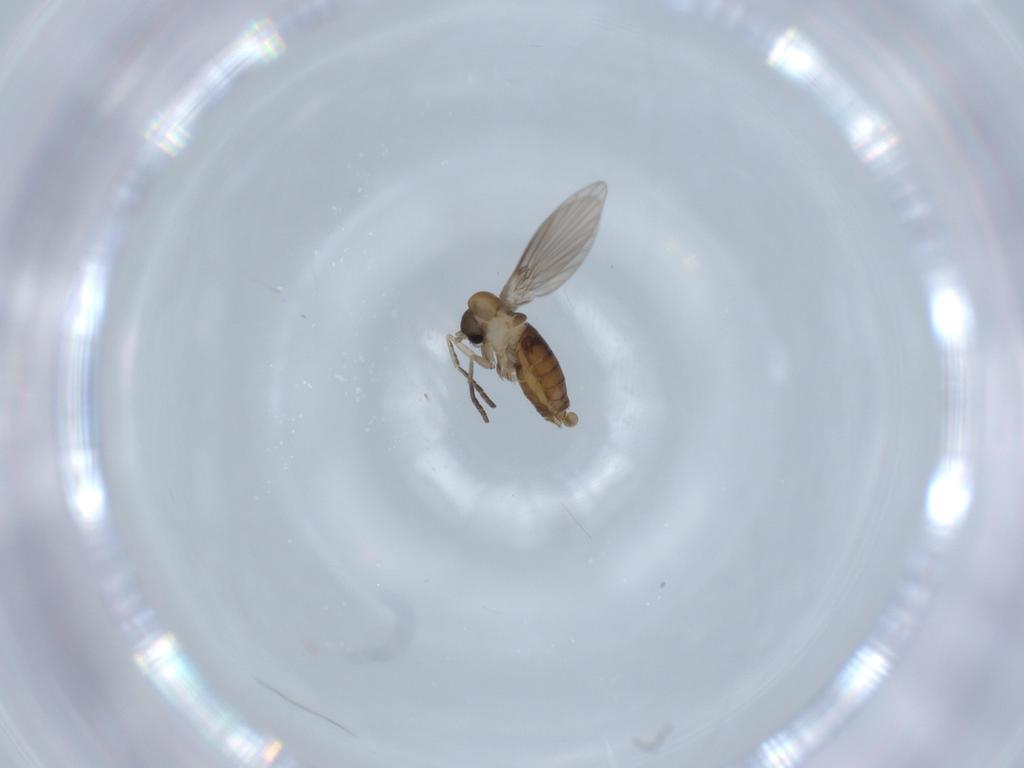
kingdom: Animalia
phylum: Arthropoda
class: Insecta
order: Diptera
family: Psychodidae
